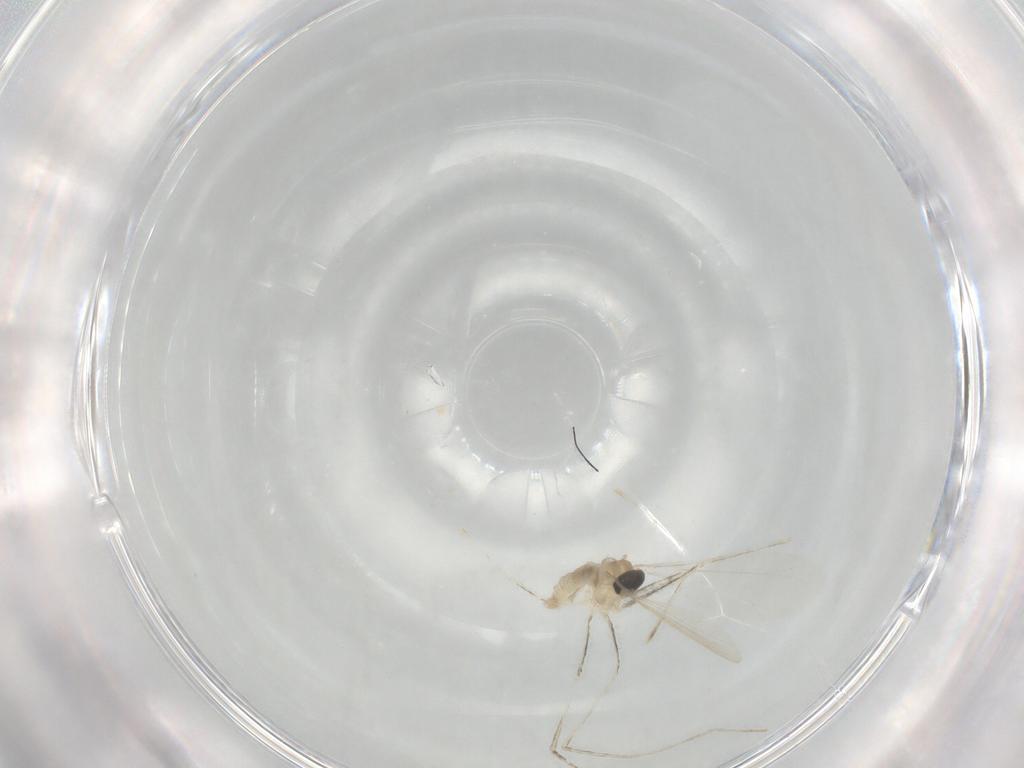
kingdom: Animalia
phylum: Arthropoda
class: Insecta
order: Diptera
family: Cecidomyiidae
